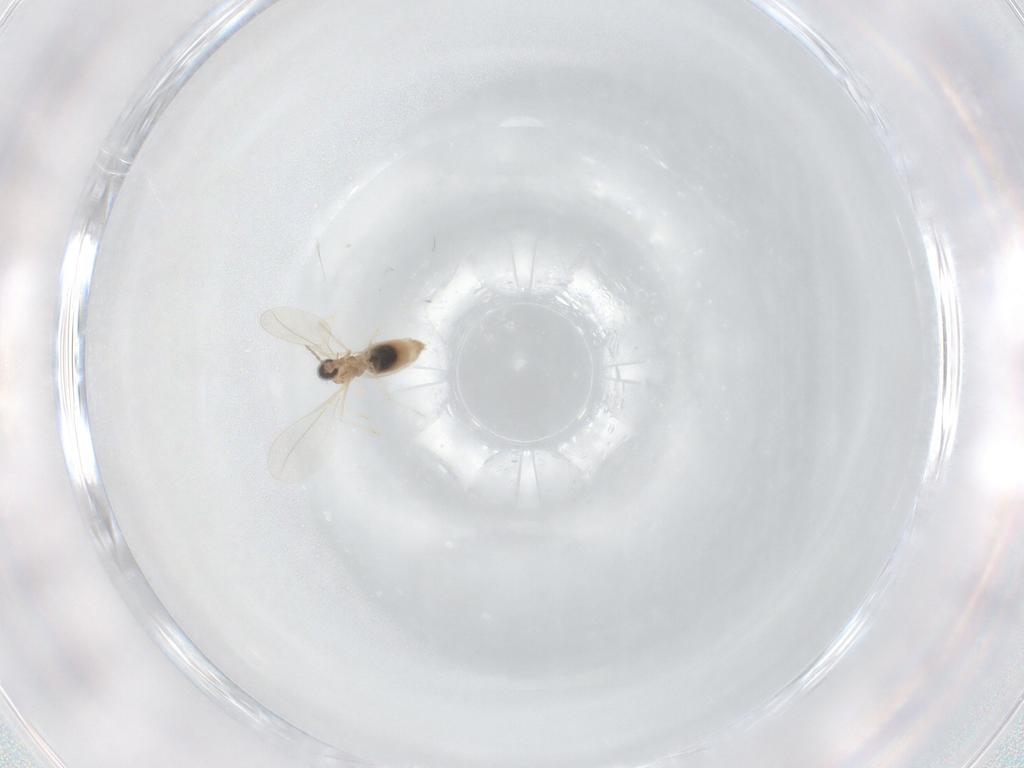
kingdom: Animalia
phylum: Arthropoda
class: Insecta
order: Diptera
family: Cecidomyiidae
